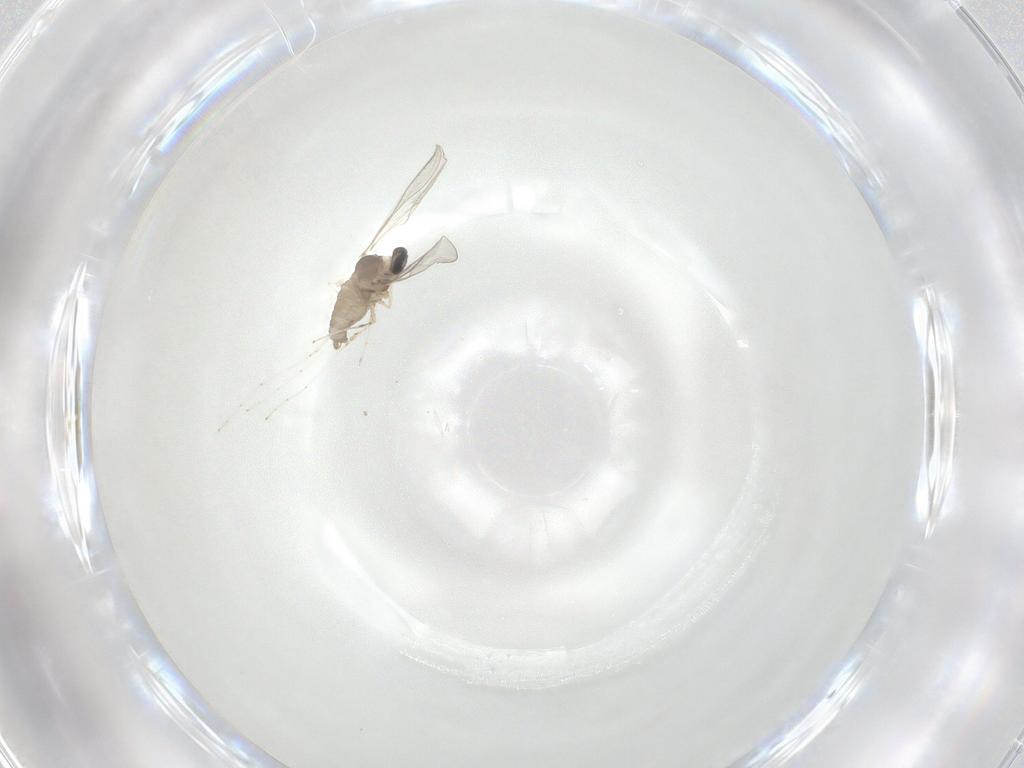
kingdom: Animalia
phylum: Arthropoda
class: Insecta
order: Diptera
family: Cecidomyiidae
